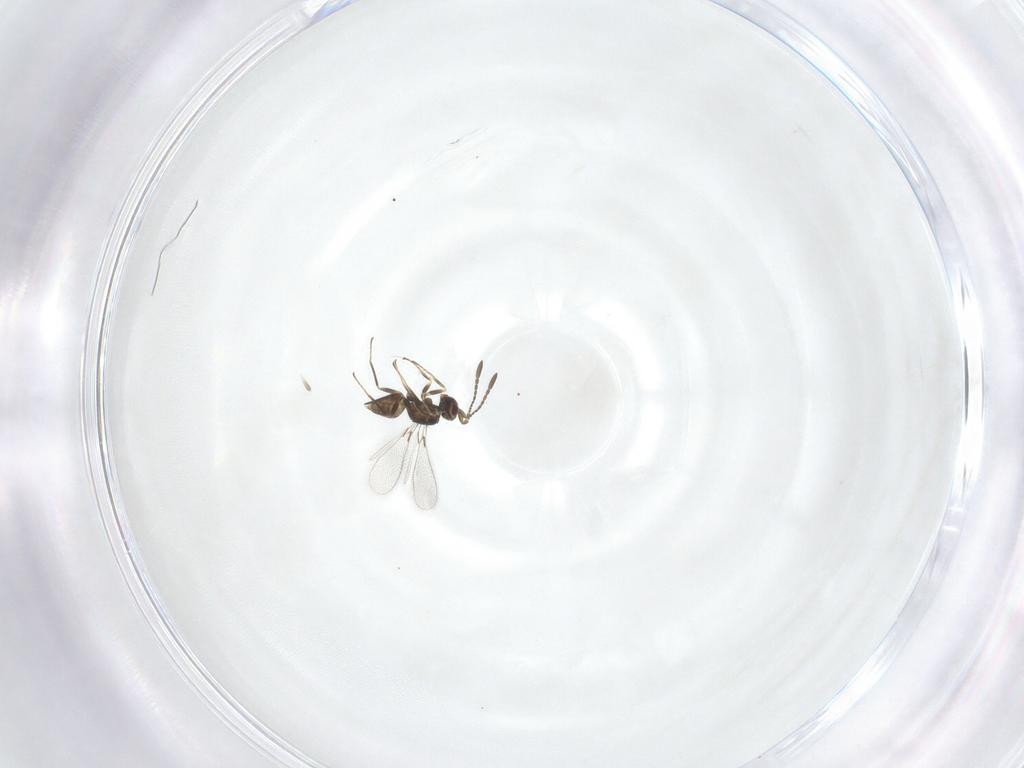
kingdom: Animalia
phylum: Arthropoda
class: Insecta
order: Hymenoptera
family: Mymaridae
